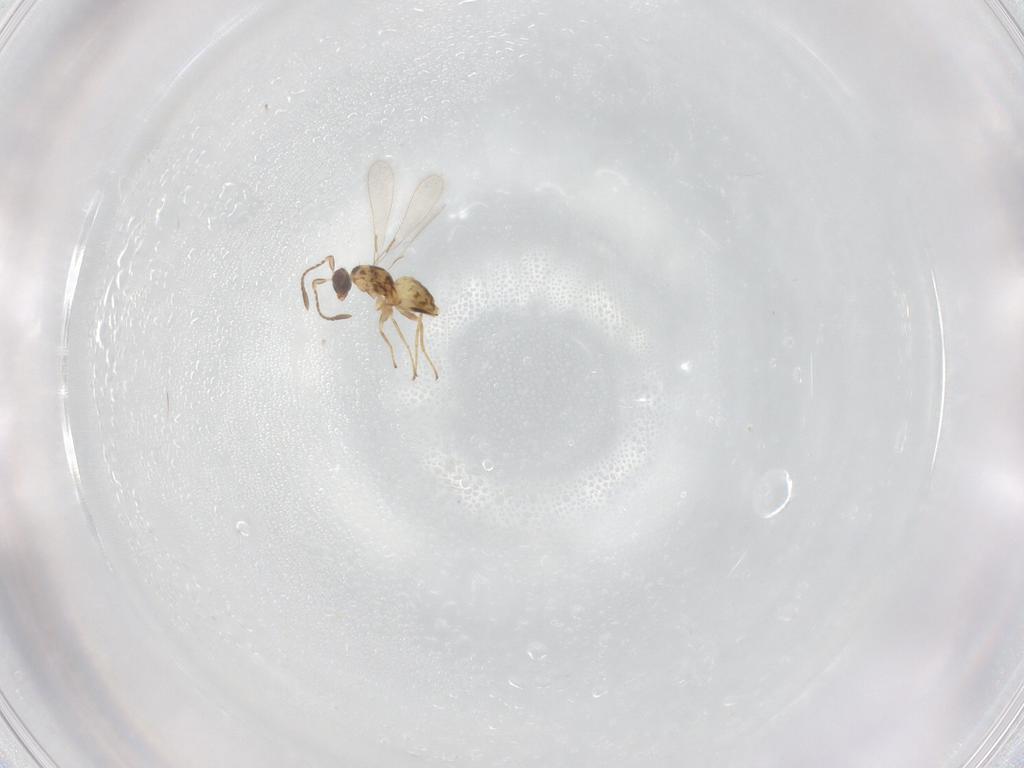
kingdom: Animalia
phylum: Arthropoda
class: Insecta
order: Hymenoptera
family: Mymaridae
